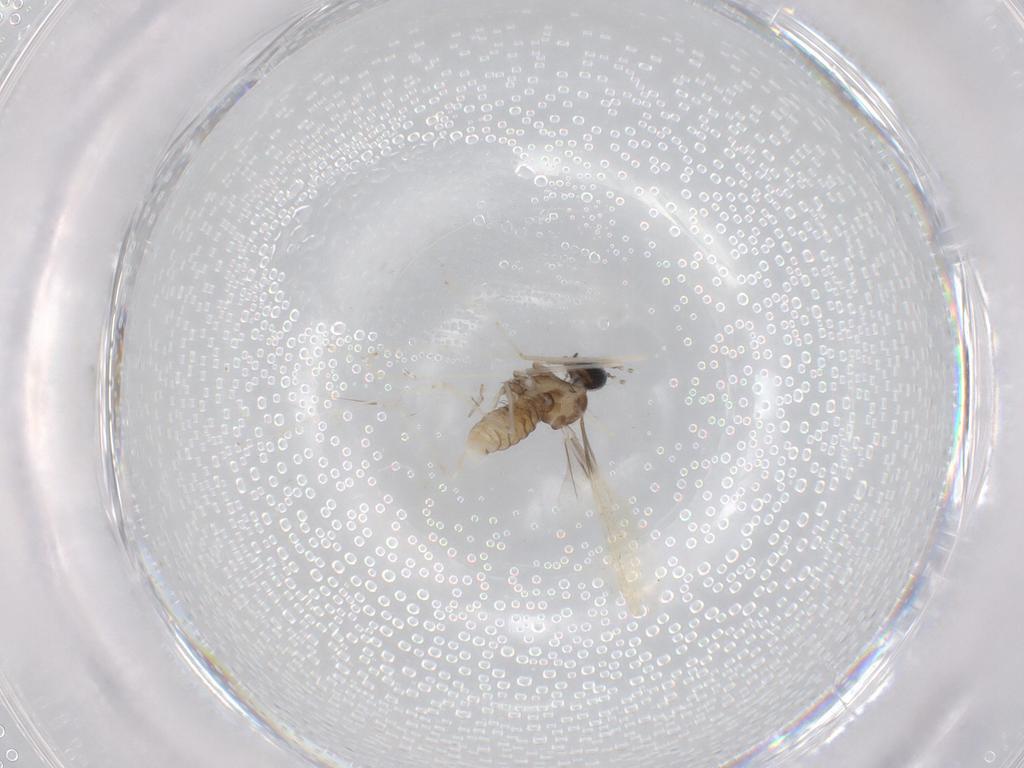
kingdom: Animalia
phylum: Arthropoda
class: Insecta
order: Diptera
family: Cecidomyiidae
